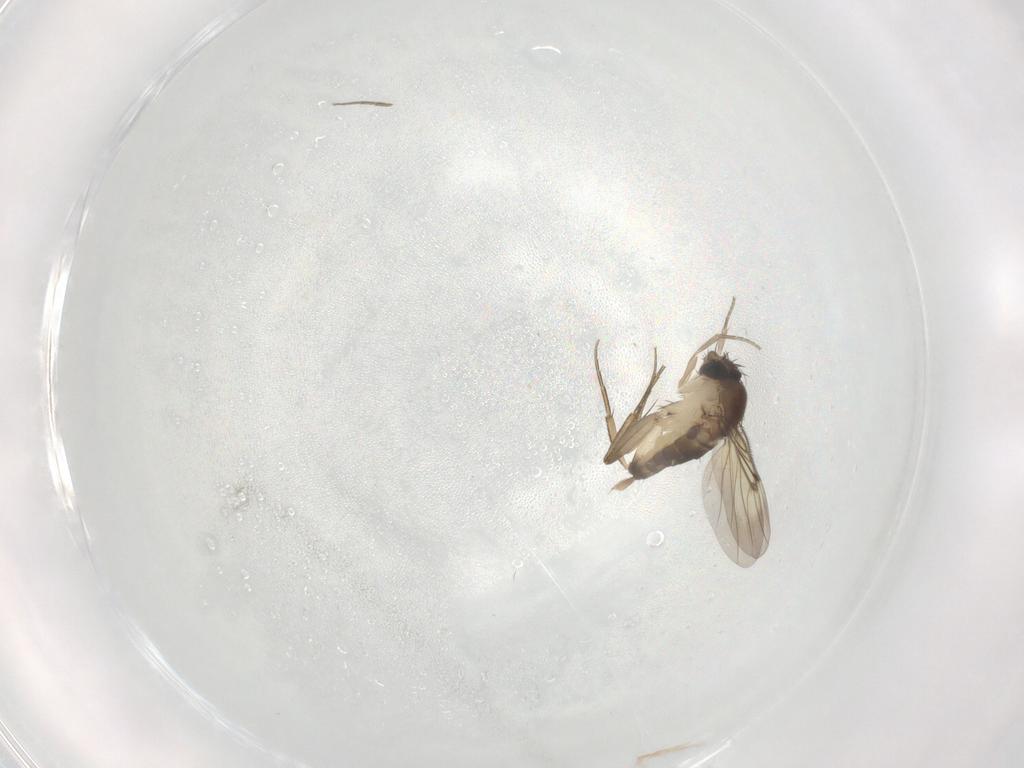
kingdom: Animalia
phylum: Arthropoda
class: Insecta
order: Diptera
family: Phoridae
